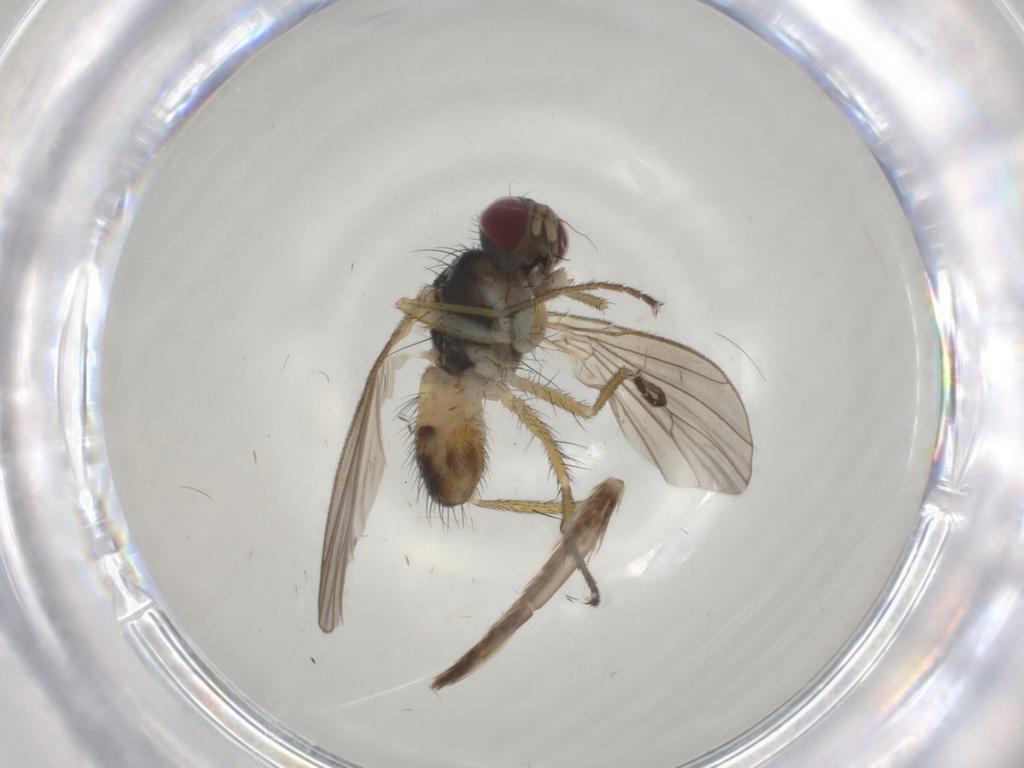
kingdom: Animalia
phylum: Arthropoda
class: Insecta
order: Diptera
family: Muscidae
